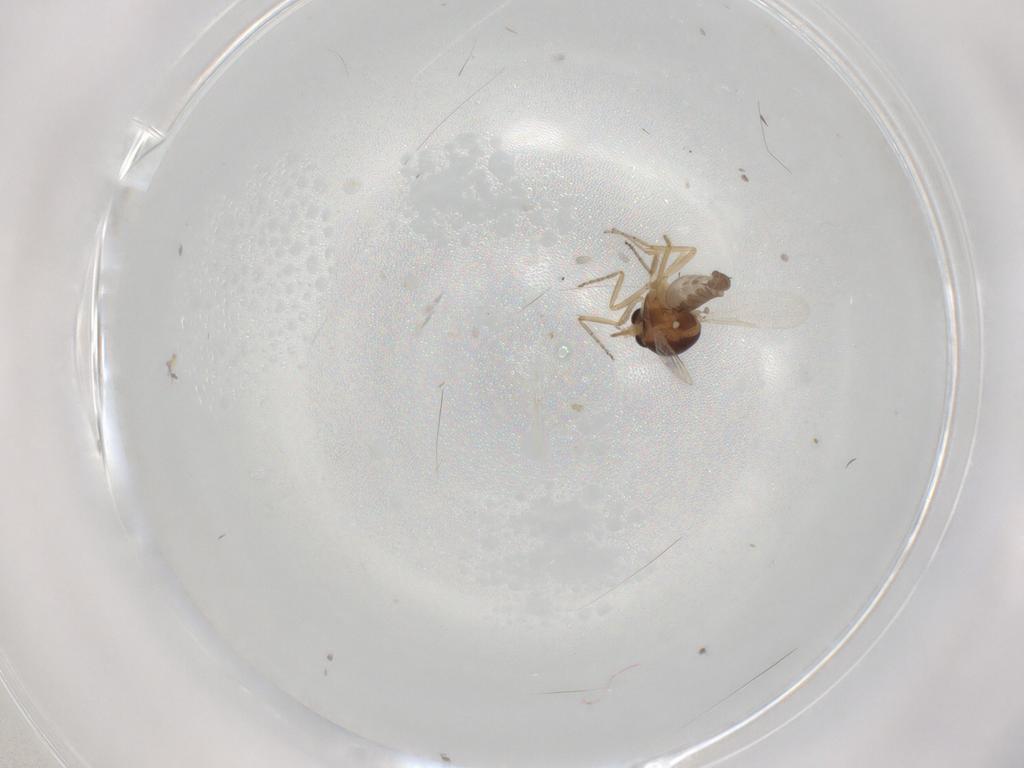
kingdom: Animalia
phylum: Arthropoda
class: Insecta
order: Diptera
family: Ceratopogonidae
